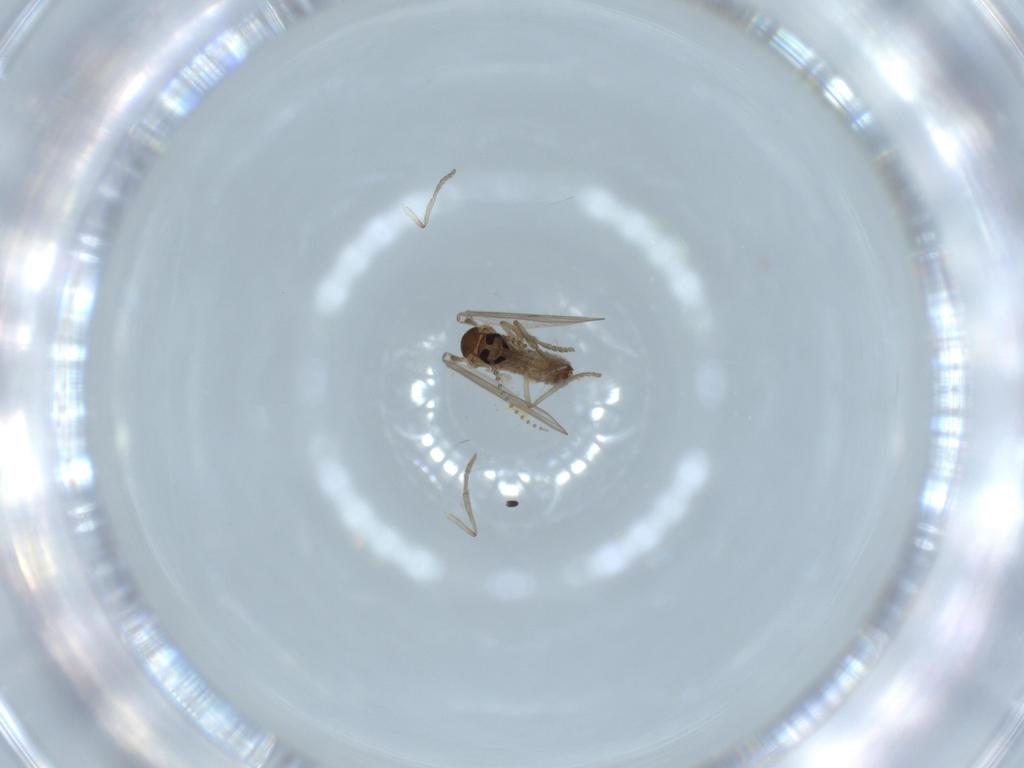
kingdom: Animalia
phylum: Arthropoda
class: Insecta
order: Diptera
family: Psychodidae
